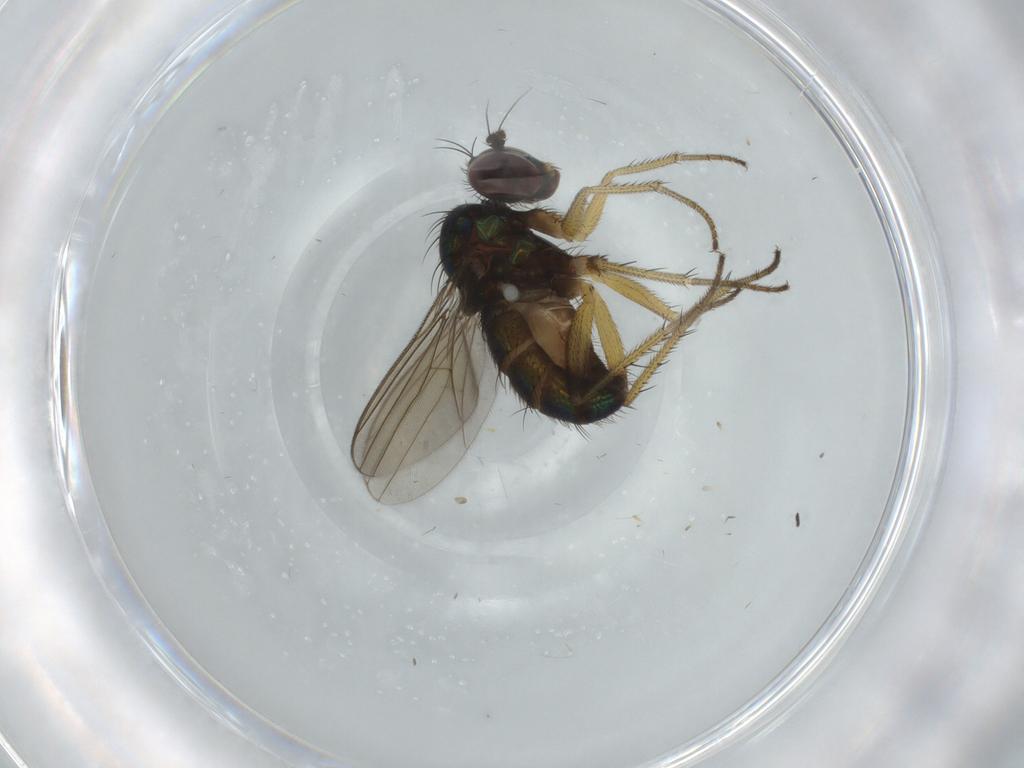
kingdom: Animalia
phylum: Arthropoda
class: Insecta
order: Diptera
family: Dolichopodidae
